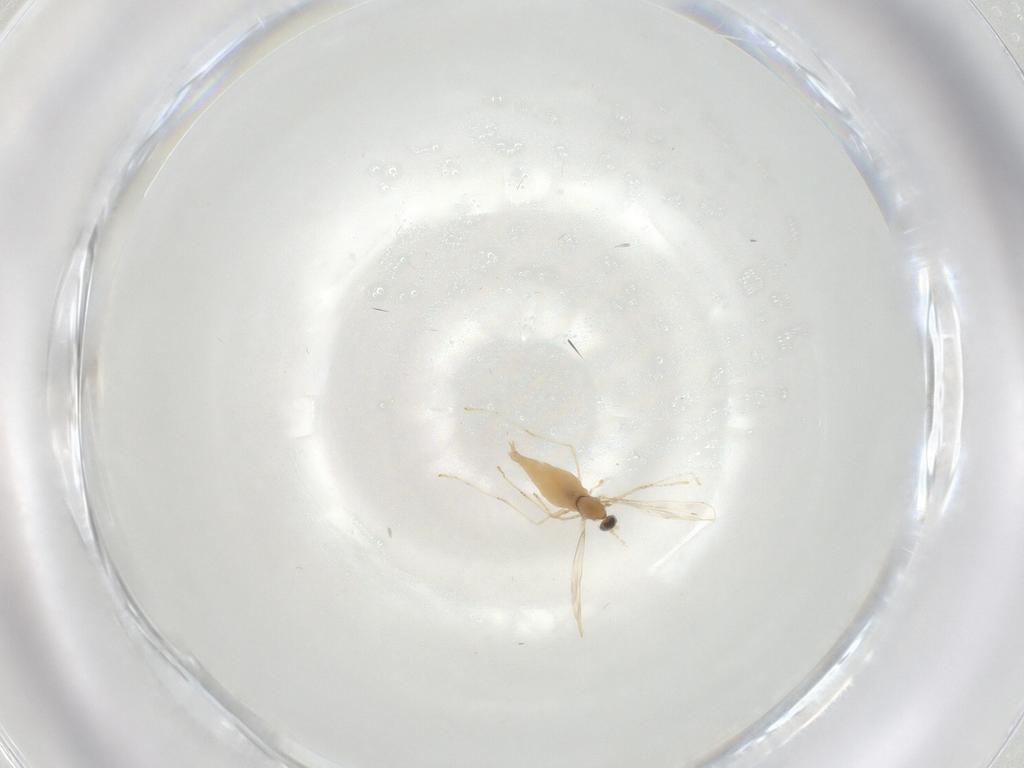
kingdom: Animalia
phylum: Arthropoda
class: Insecta
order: Diptera
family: Cecidomyiidae
